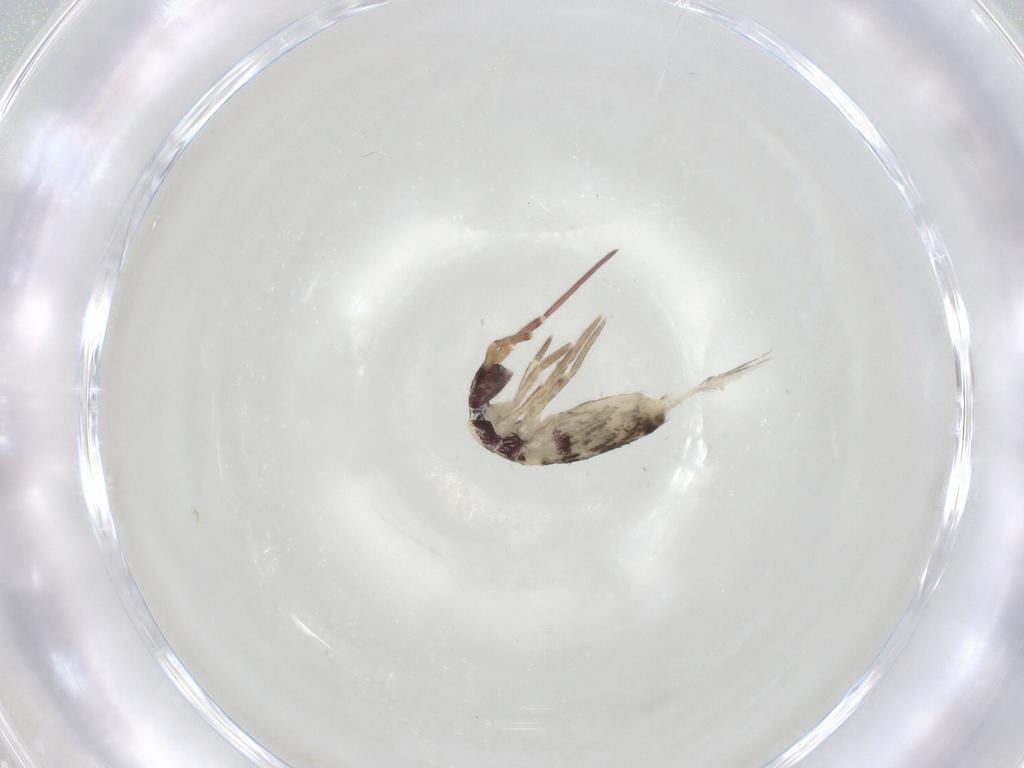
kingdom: Animalia
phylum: Arthropoda
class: Collembola
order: Entomobryomorpha
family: Entomobryidae
